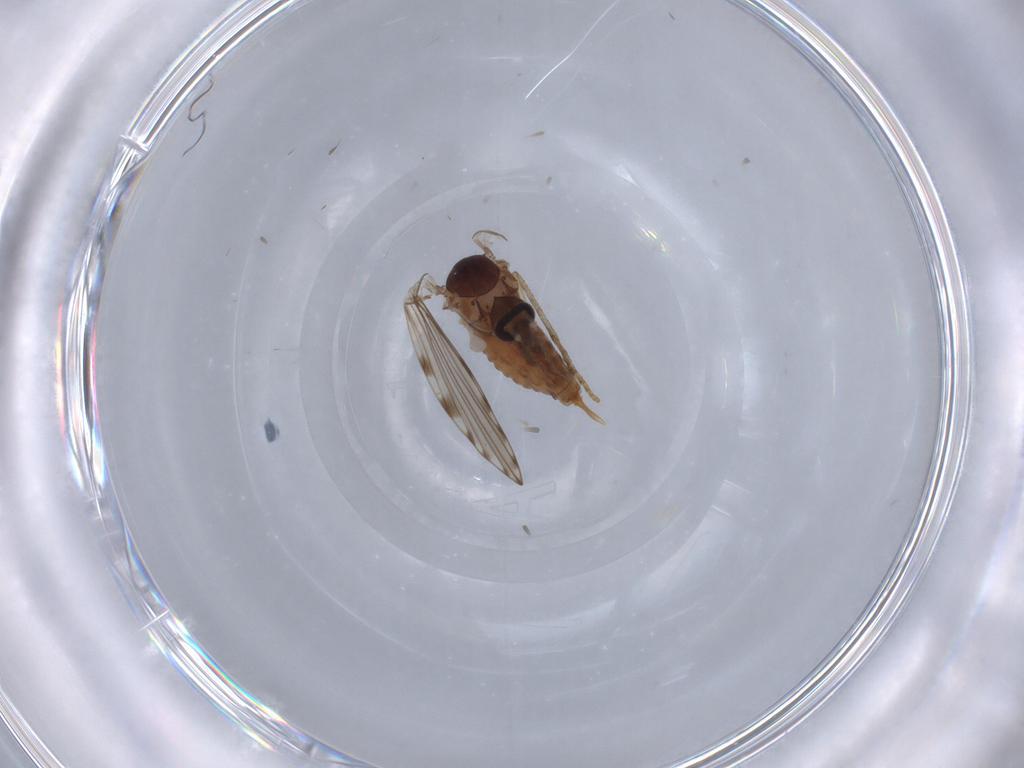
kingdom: Animalia
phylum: Arthropoda
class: Insecta
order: Diptera
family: Psychodidae
